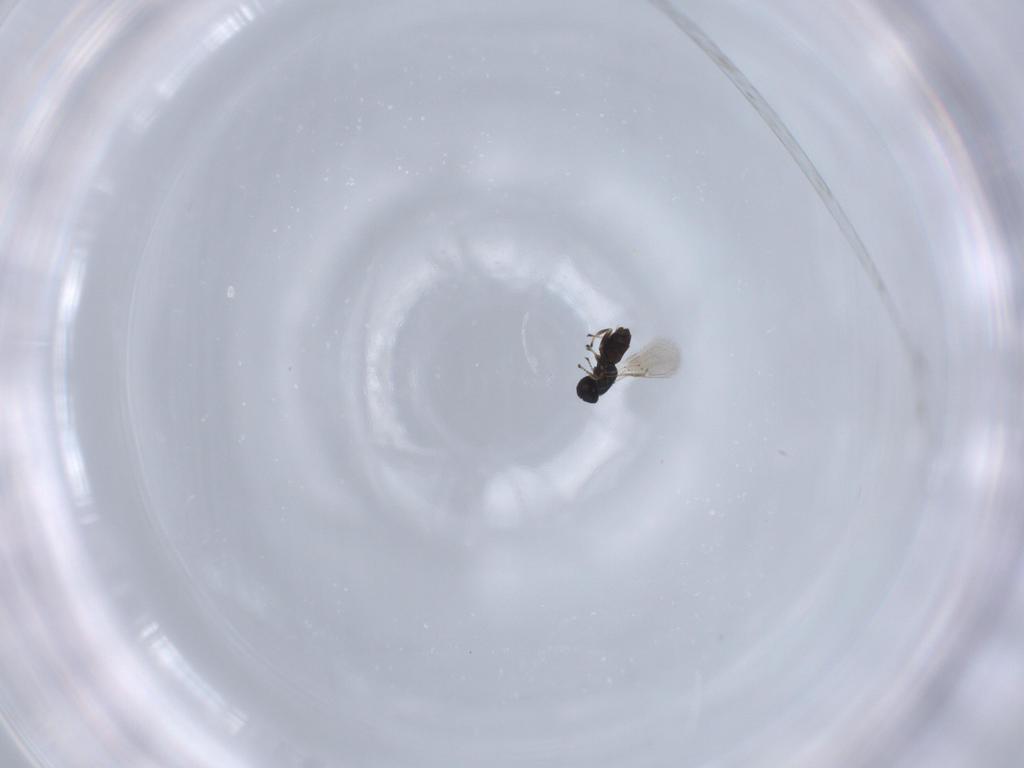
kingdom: Animalia
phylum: Arthropoda
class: Insecta
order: Hymenoptera
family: Eulophidae
